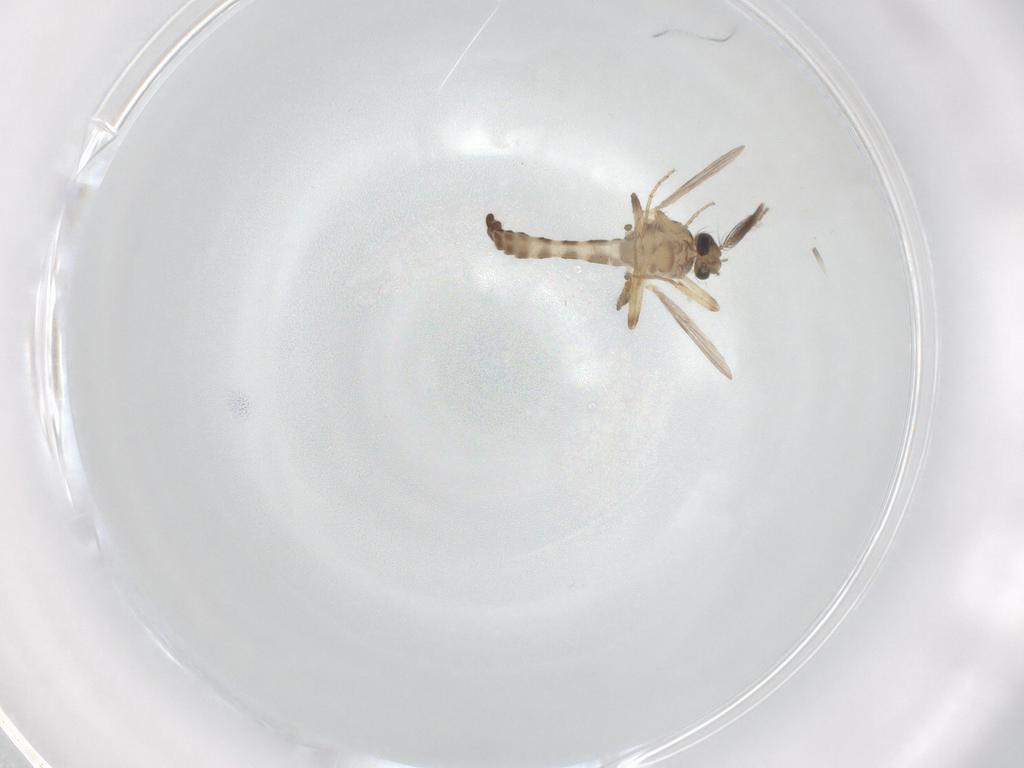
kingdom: Animalia
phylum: Arthropoda
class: Insecta
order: Diptera
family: Ceratopogonidae
